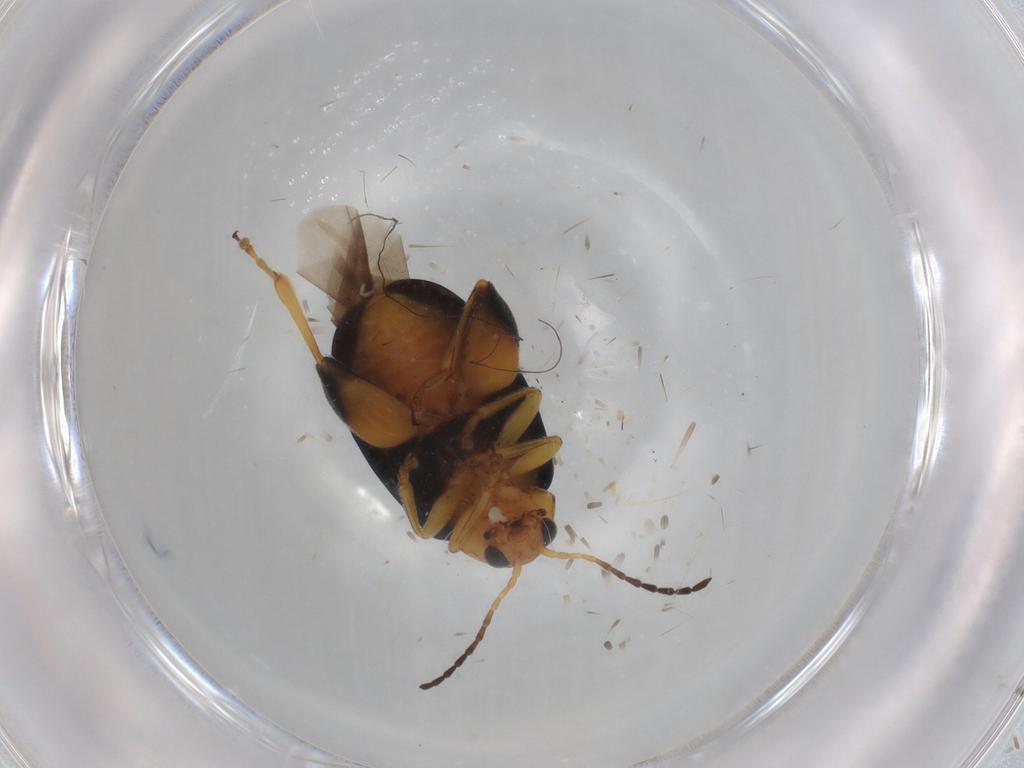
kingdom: Animalia
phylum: Arthropoda
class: Insecta
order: Coleoptera
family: Chrysomelidae
